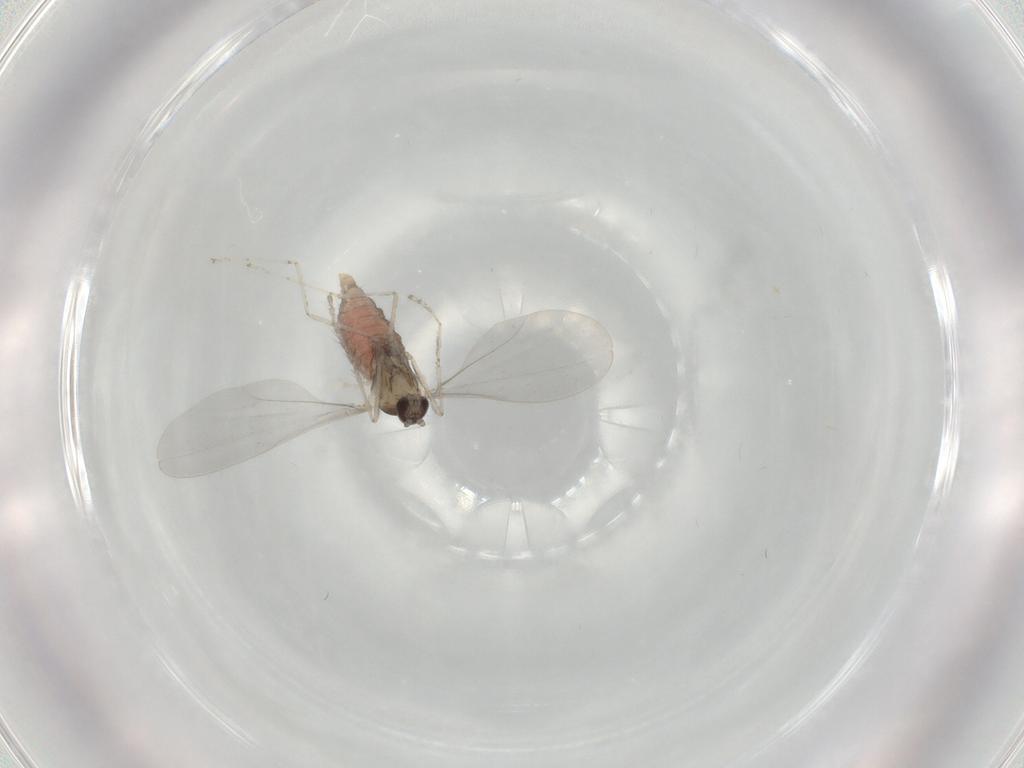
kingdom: Animalia
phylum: Arthropoda
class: Insecta
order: Diptera
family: Cecidomyiidae
